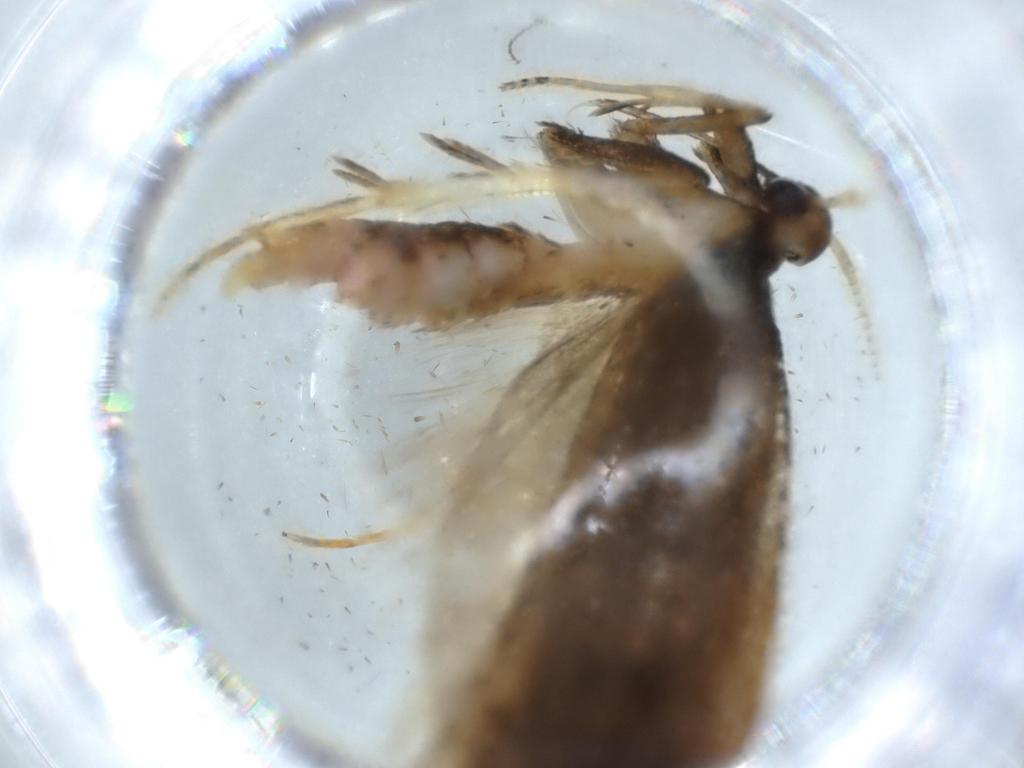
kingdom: Animalia
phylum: Arthropoda
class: Insecta
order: Lepidoptera
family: Lecithoceridae
